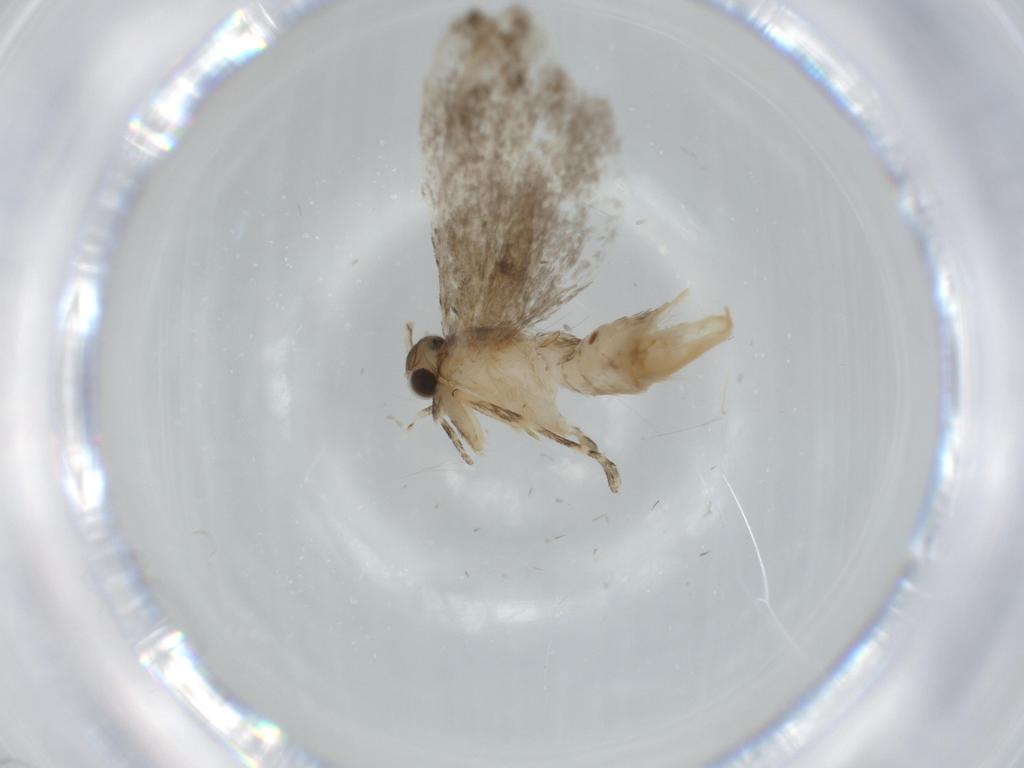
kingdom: Animalia
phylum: Arthropoda
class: Insecta
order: Lepidoptera
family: Tineidae
